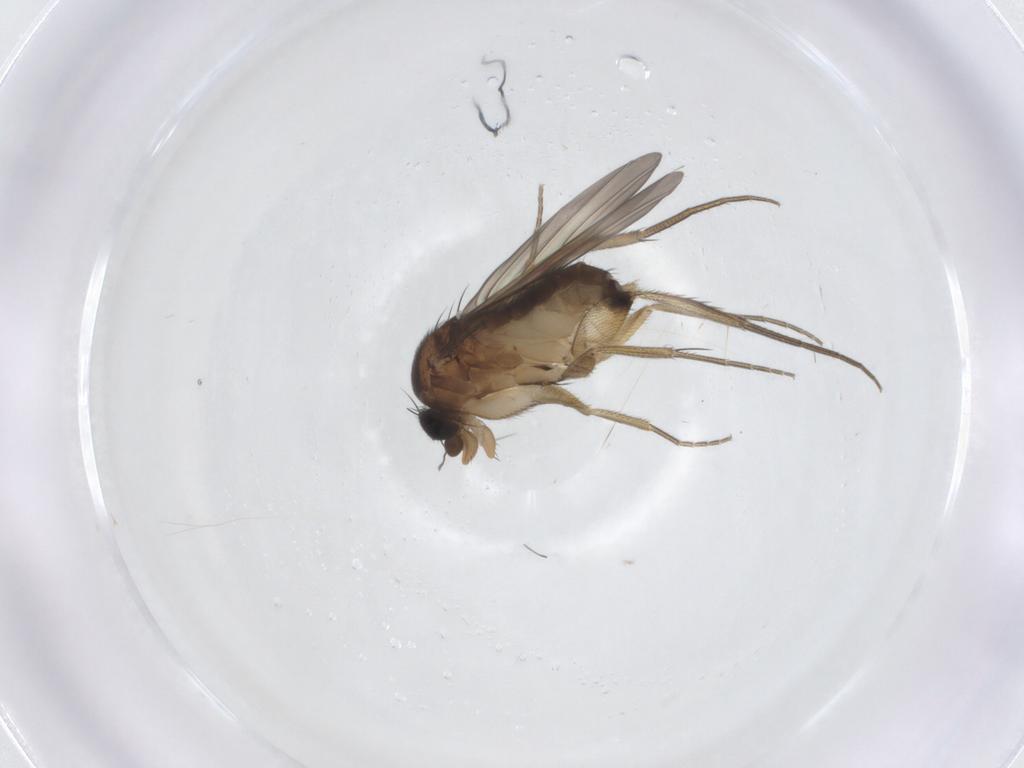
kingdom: Animalia
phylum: Arthropoda
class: Insecta
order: Diptera
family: Phoridae
